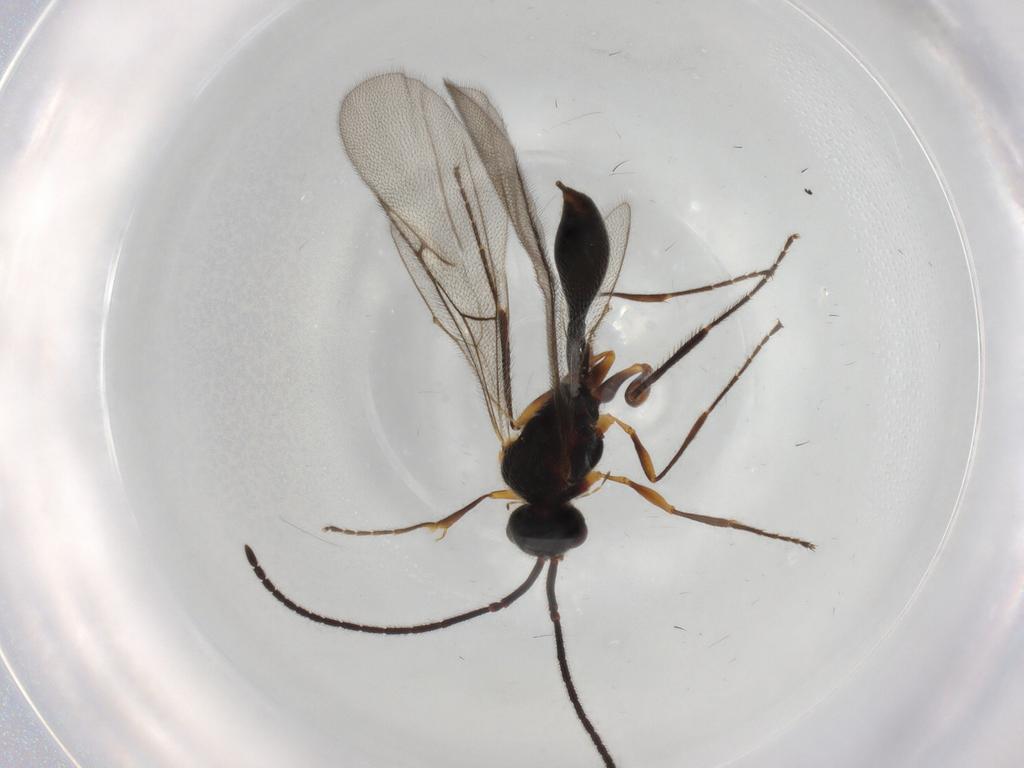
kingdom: Animalia
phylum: Arthropoda
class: Insecta
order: Hymenoptera
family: Diapriidae
